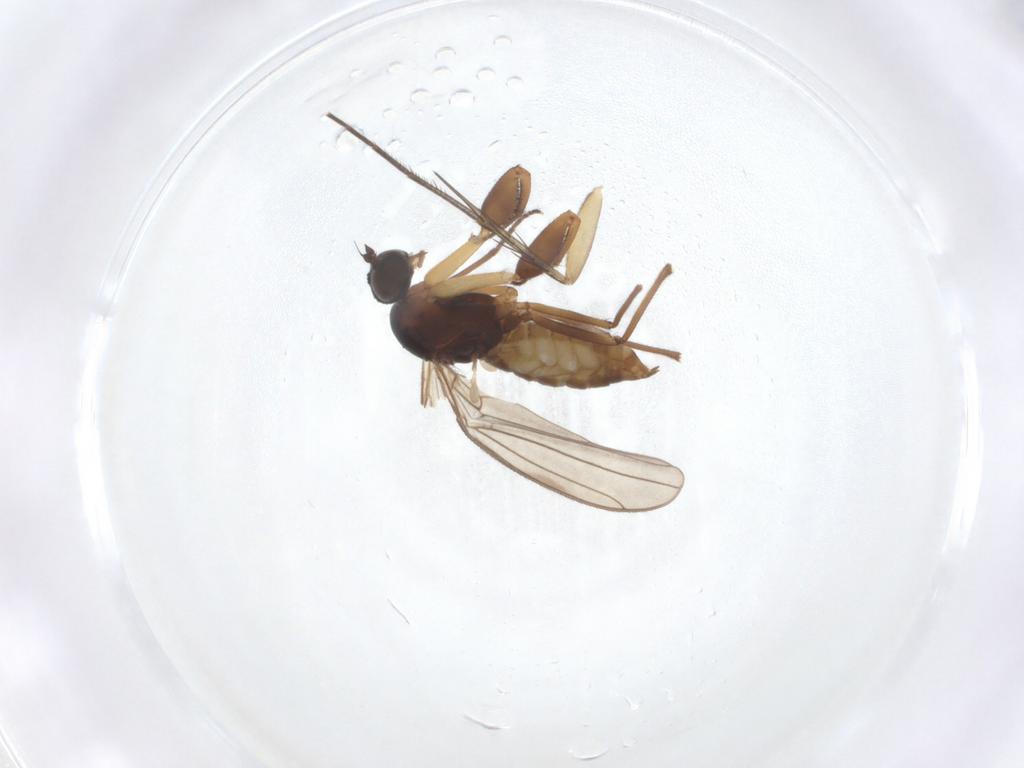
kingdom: Animalia
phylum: Arthropoda
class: Insecta
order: Diptera
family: Empididae
